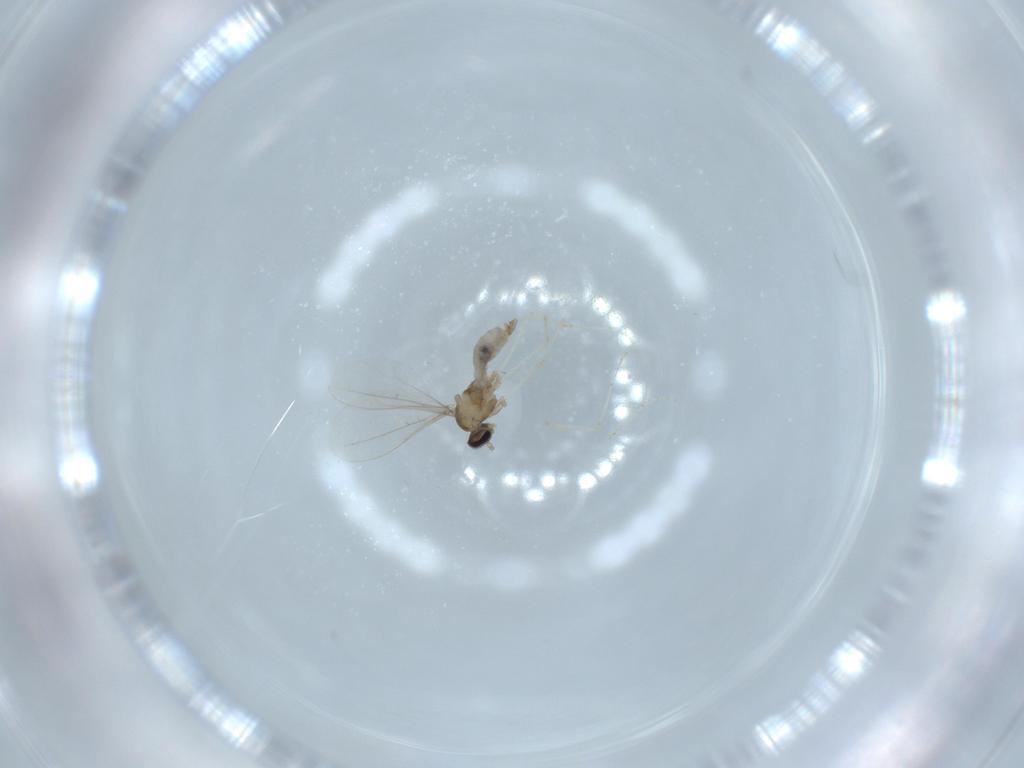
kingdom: Animalia
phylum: Arthropoda
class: Insecta
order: Diptera
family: Cecidomyiidae
